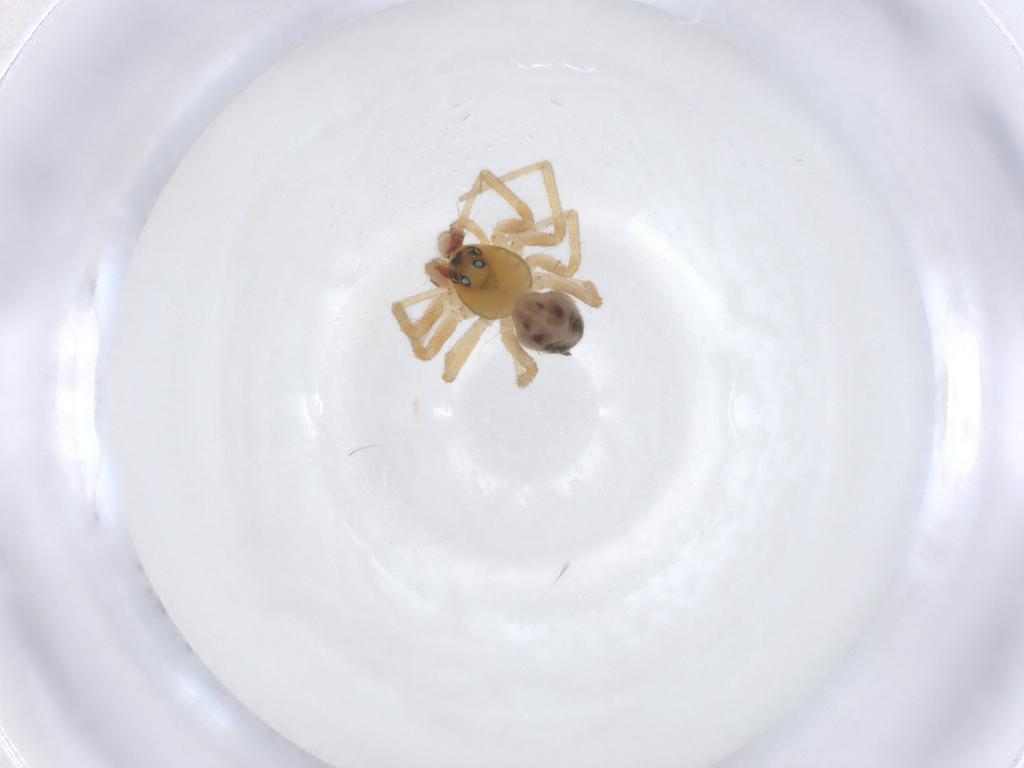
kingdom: Animalia
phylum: Arthropoda
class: Arachnida
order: Araneae
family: Linyphiidae
